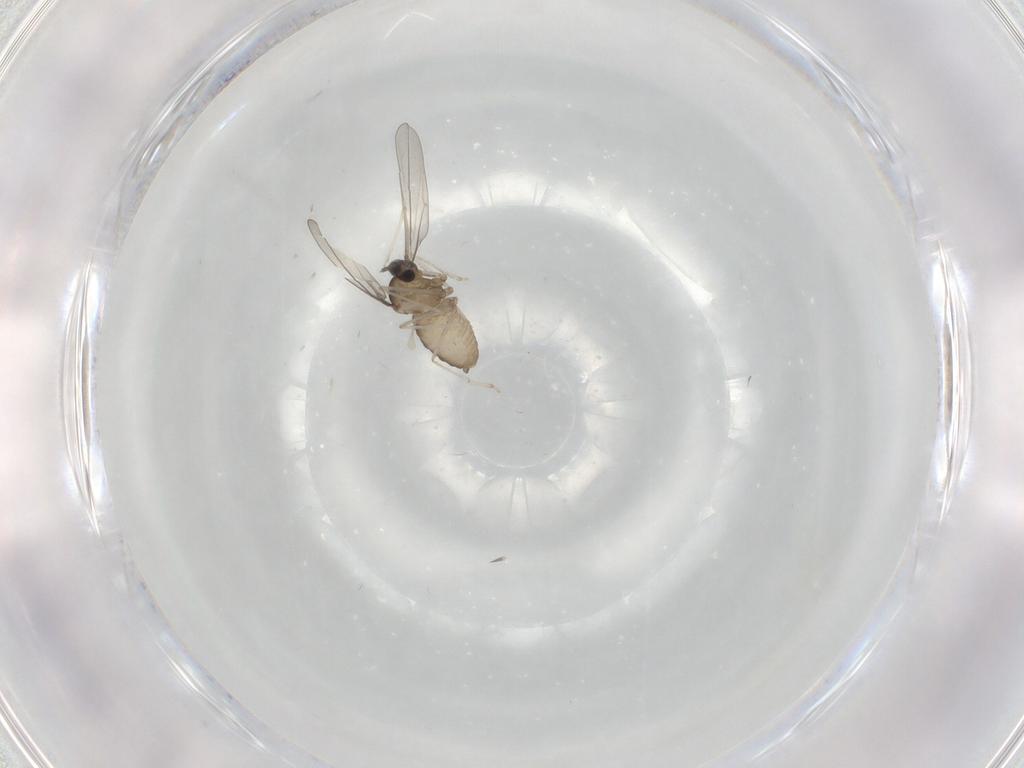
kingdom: Animalia
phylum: Arthropoda
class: Insecta
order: Diptera
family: Cecidomyiidae
